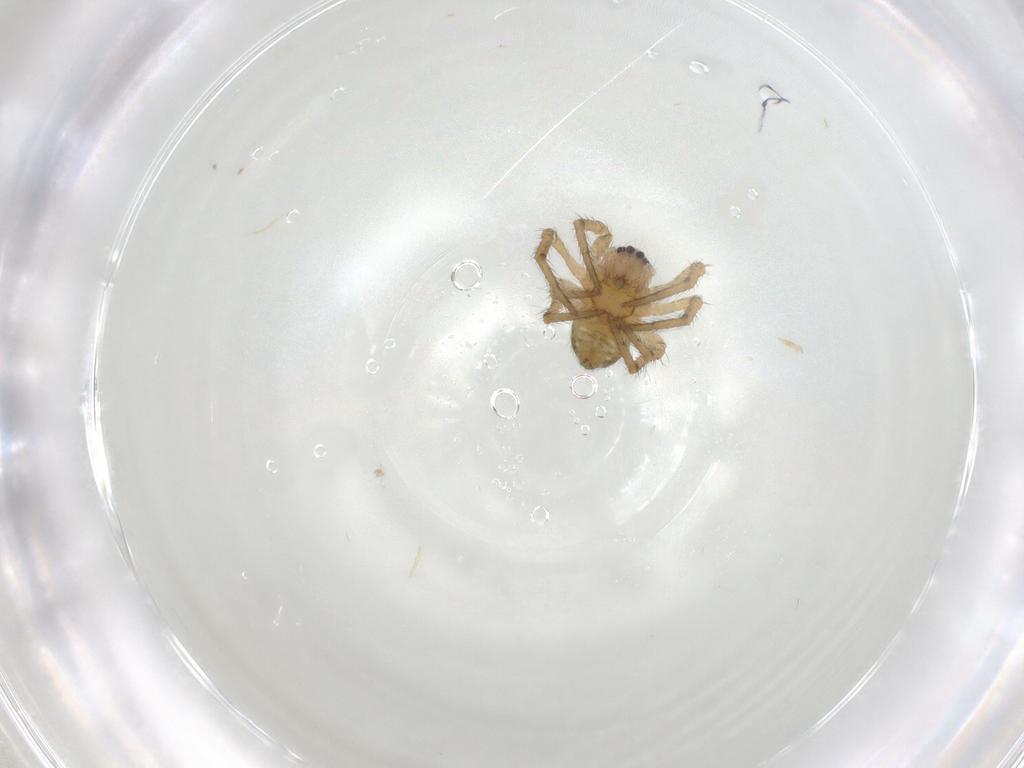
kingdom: Animalia
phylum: Arthropoda
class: Arachnida
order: Araneae
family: Araneidae
